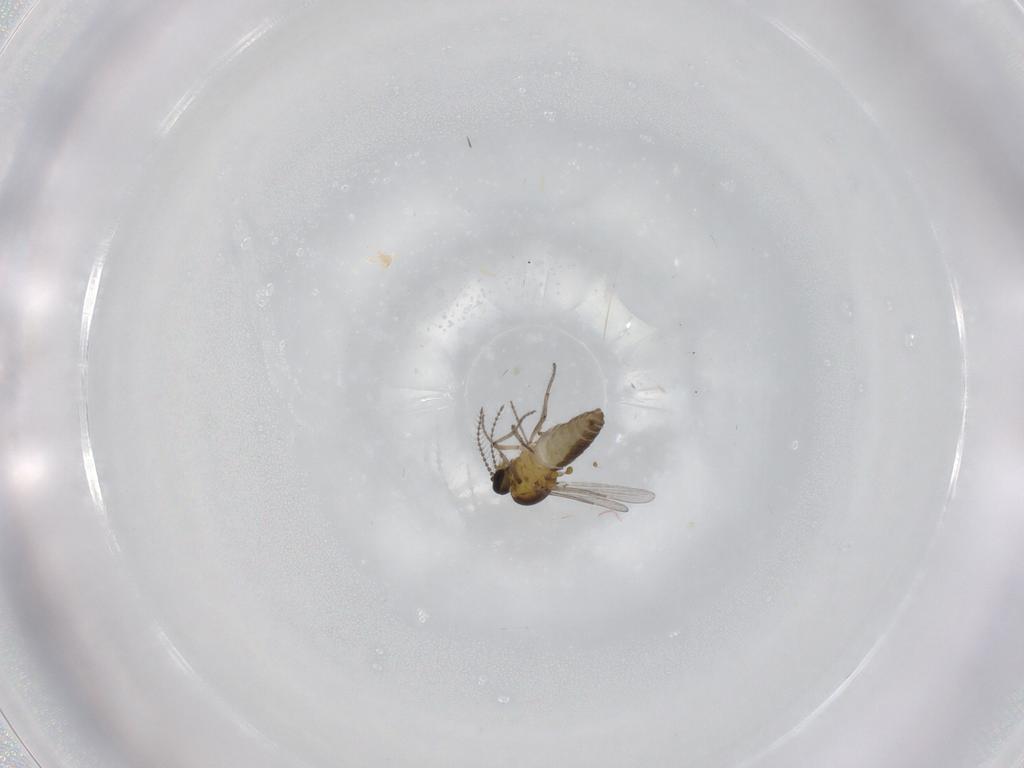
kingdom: Animalia
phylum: Arthropoda
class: Insecta
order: Diptera
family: Ceratopogonidae
